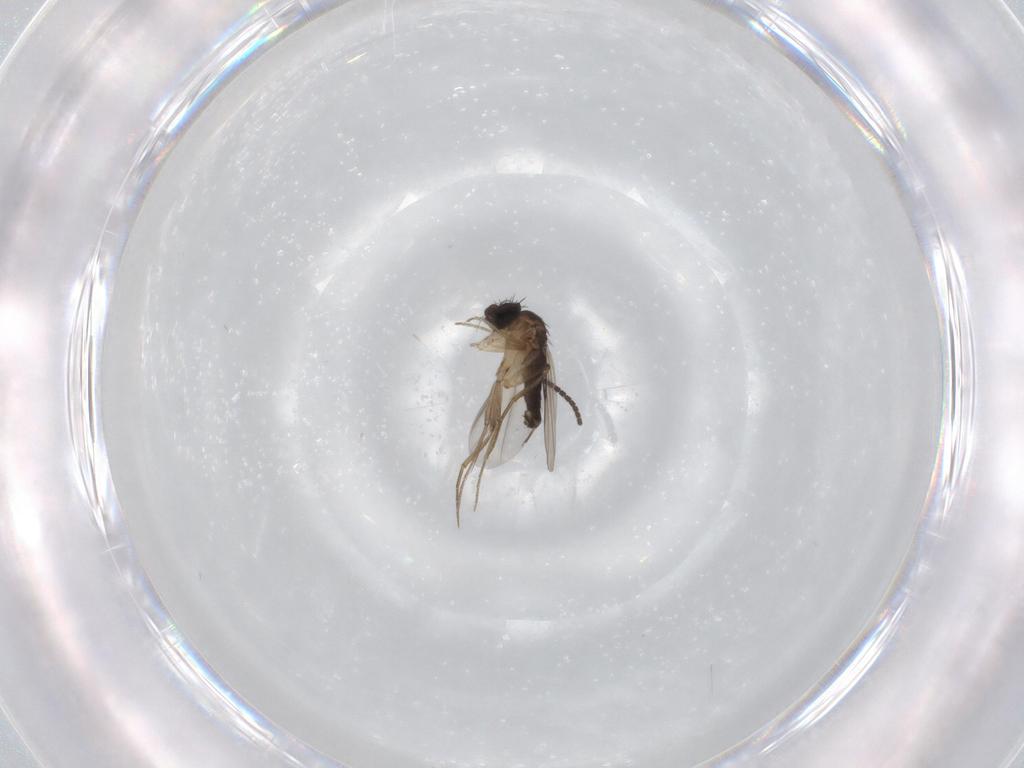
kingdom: Animalia
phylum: Arthropoda
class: Insecta
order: Diptera
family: Phoridae
